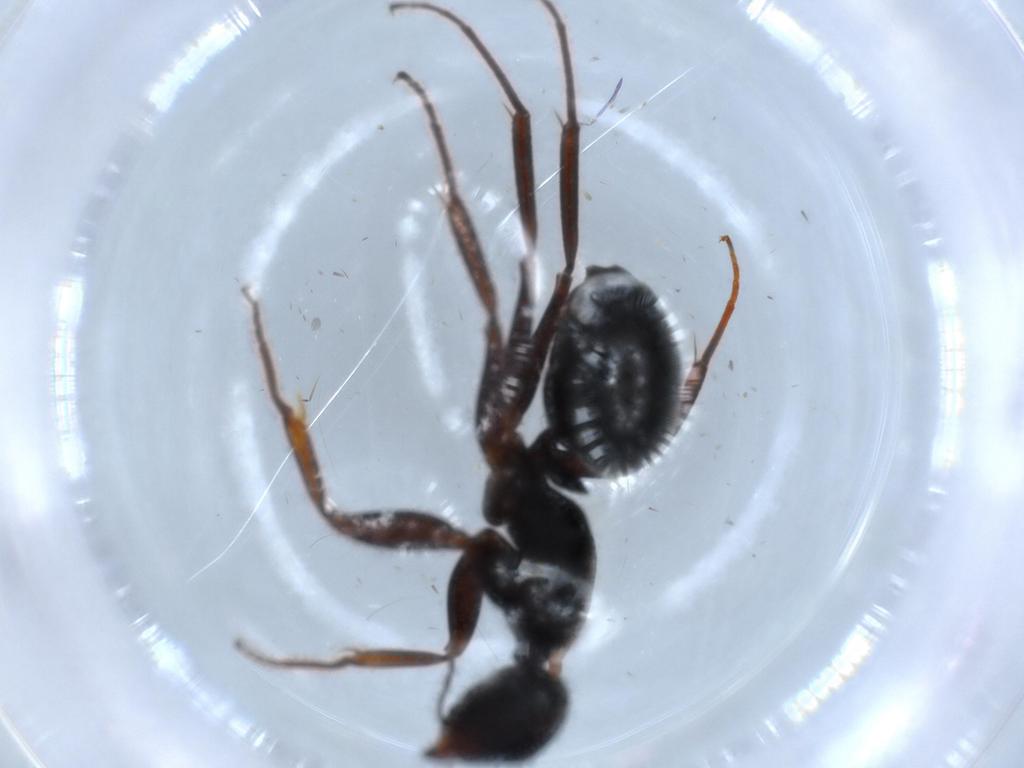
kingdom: Animalia
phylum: Arthropoda
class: Insecta
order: Hymenoptera
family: Formicidae
